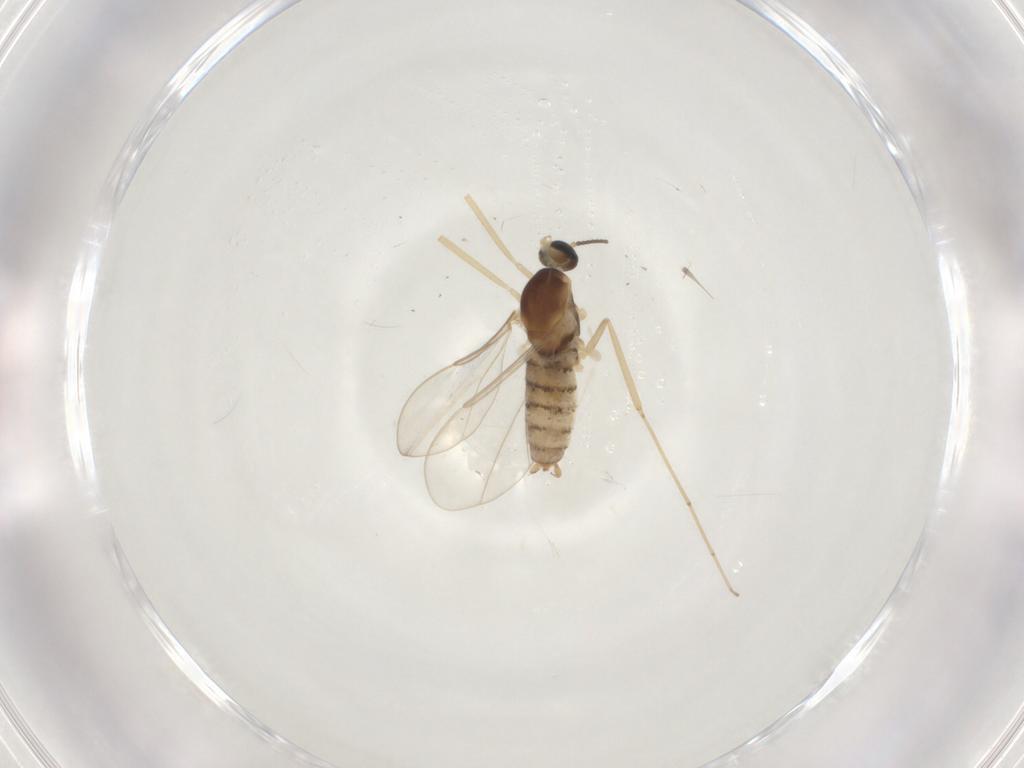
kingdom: Animalia
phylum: Arthropoda
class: Insecta
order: Diptera
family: Cecidomyiidae
